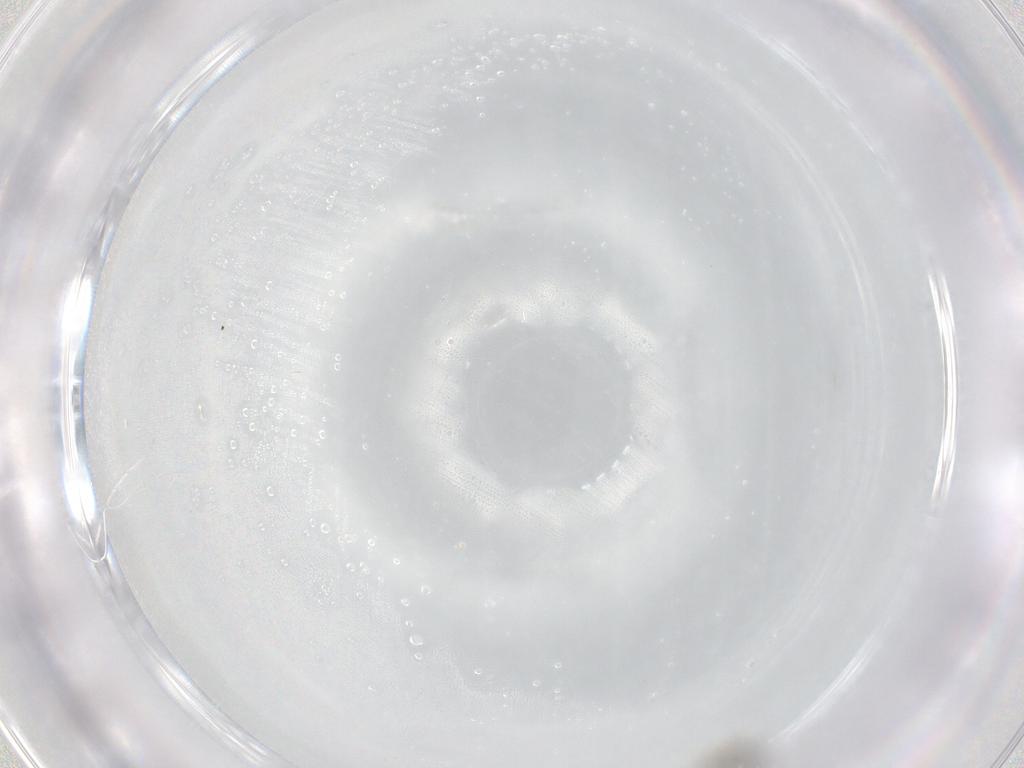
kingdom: Animalia
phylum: Arthropoda
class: Insecta
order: Diptera
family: Cecidomyiidae
